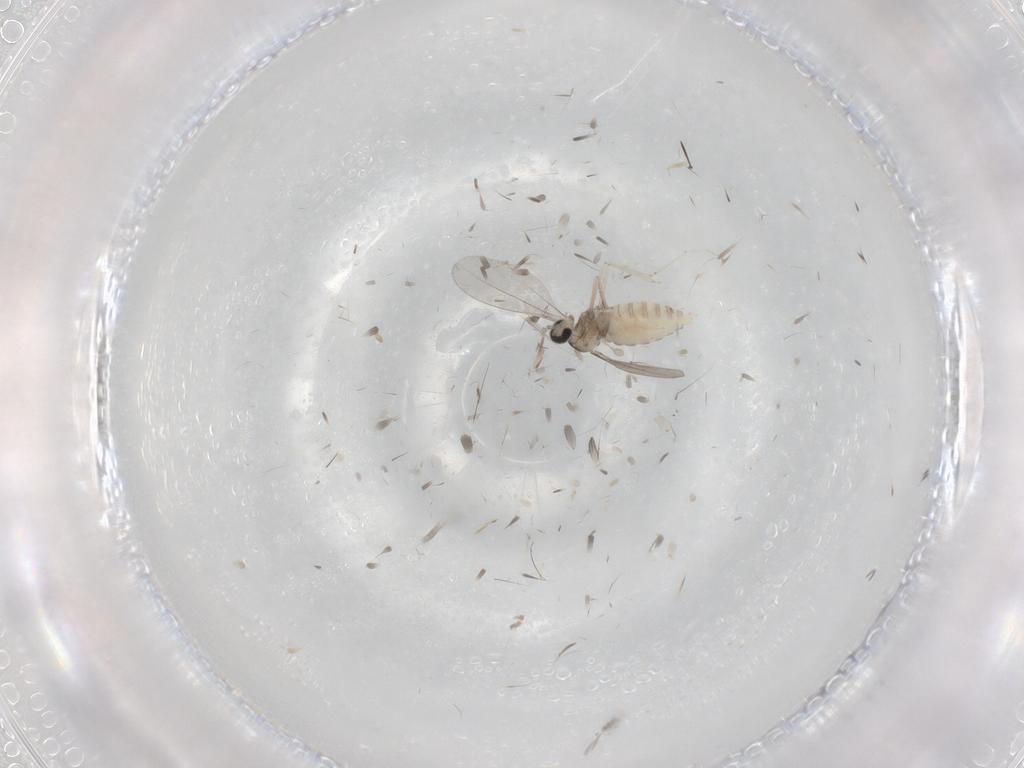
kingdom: Animalia
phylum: Arthropoda
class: Insecta
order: Diptera
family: Chironomidae
